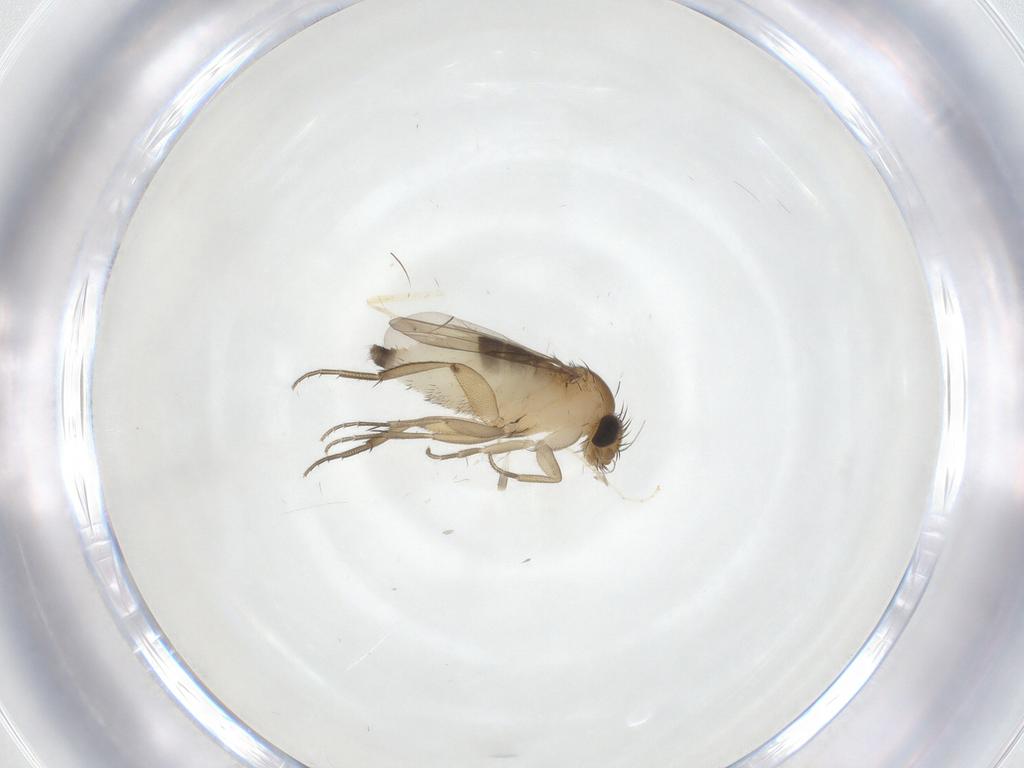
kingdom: Animalia
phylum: Arthropoda
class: Insecta
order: Diptera
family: Phoridae
